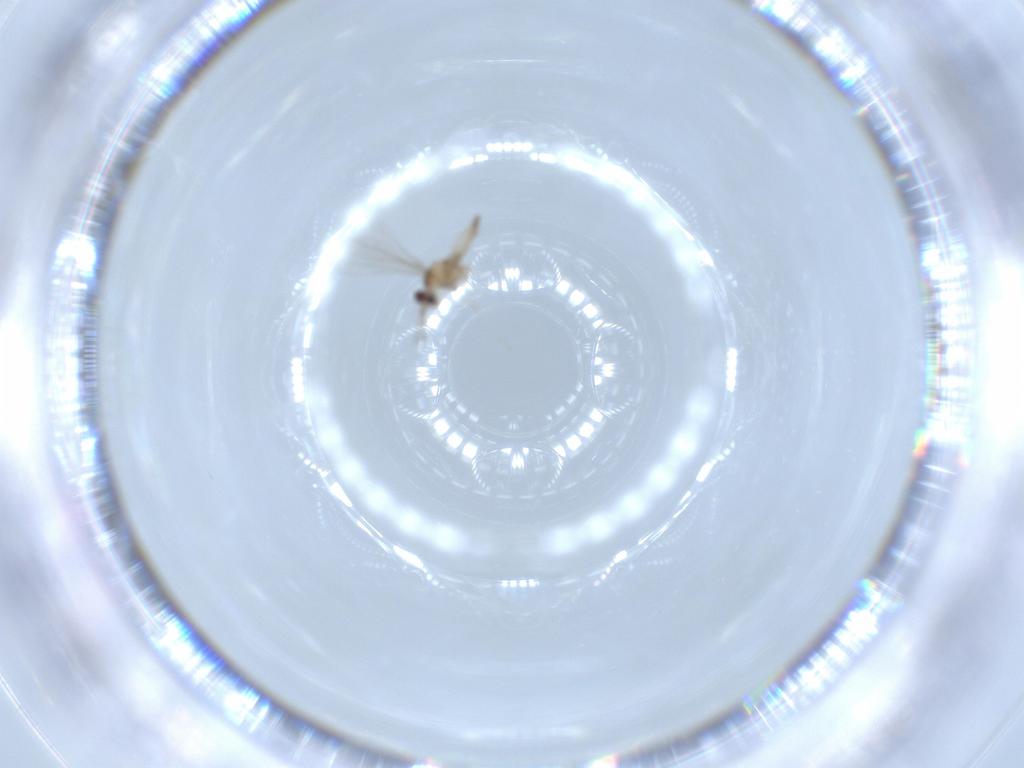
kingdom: Animalia
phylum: Arthropoda
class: Insecta
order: Diptera
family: Cecidomyiidae
